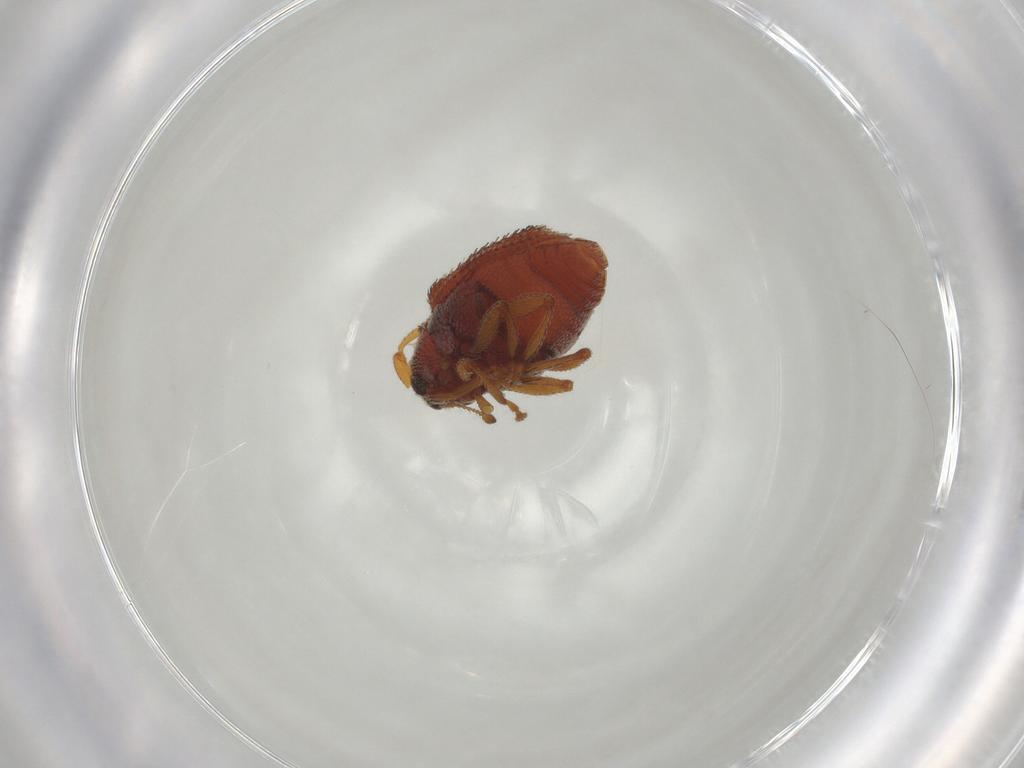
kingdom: Animalia
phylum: Arthropoda
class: Insecta
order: Coleoptera
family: Curculionidae
